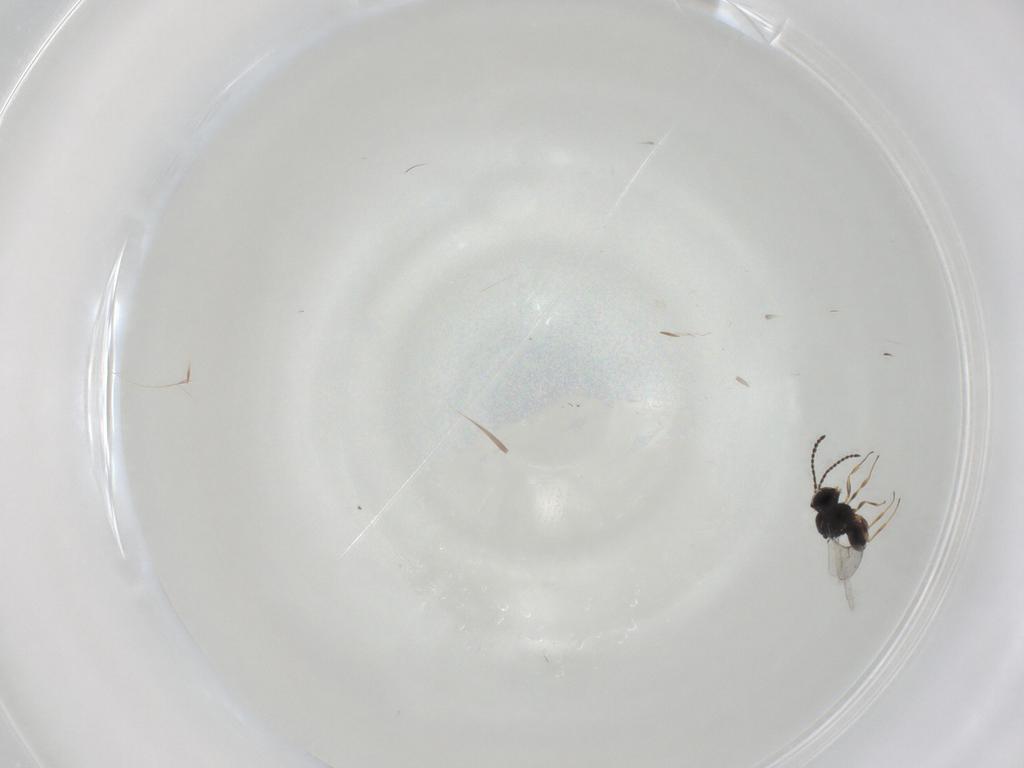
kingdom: Animalia
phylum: Arthropoda
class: Insecta
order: Hymenoptera
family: Scelionidae
